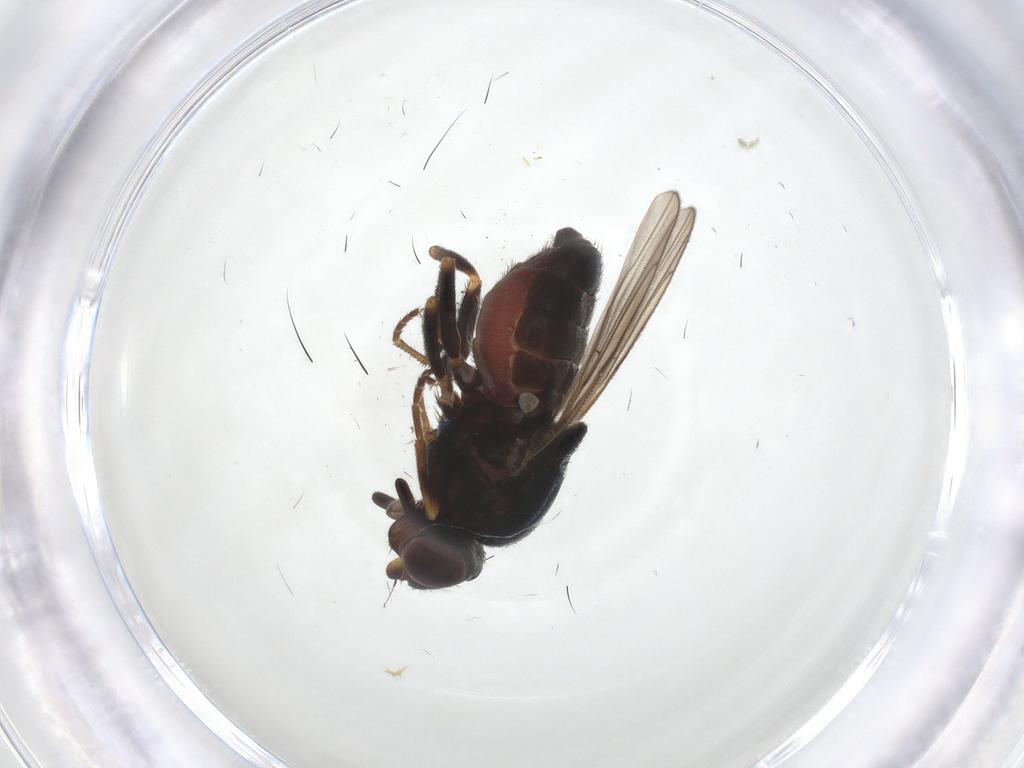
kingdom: Animalia
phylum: Arthropoda
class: Insecta
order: Diptera
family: Chloropidae
